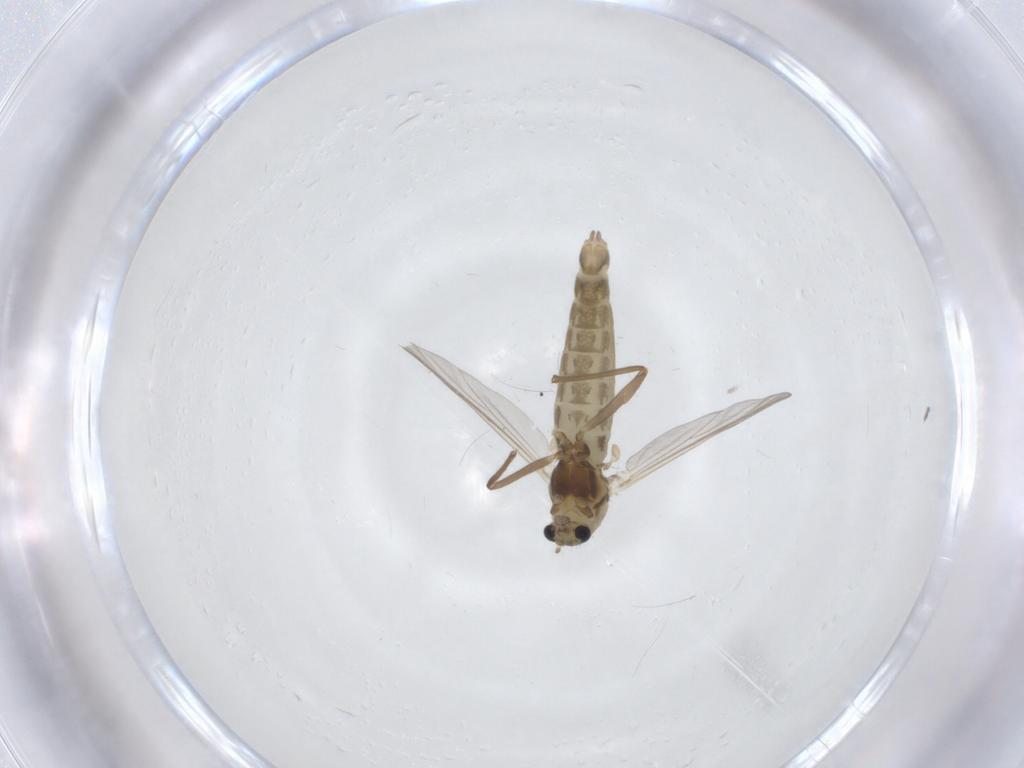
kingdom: Animalia
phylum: Arthropoda
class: Insecta
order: Diptera
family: Chironomidae
